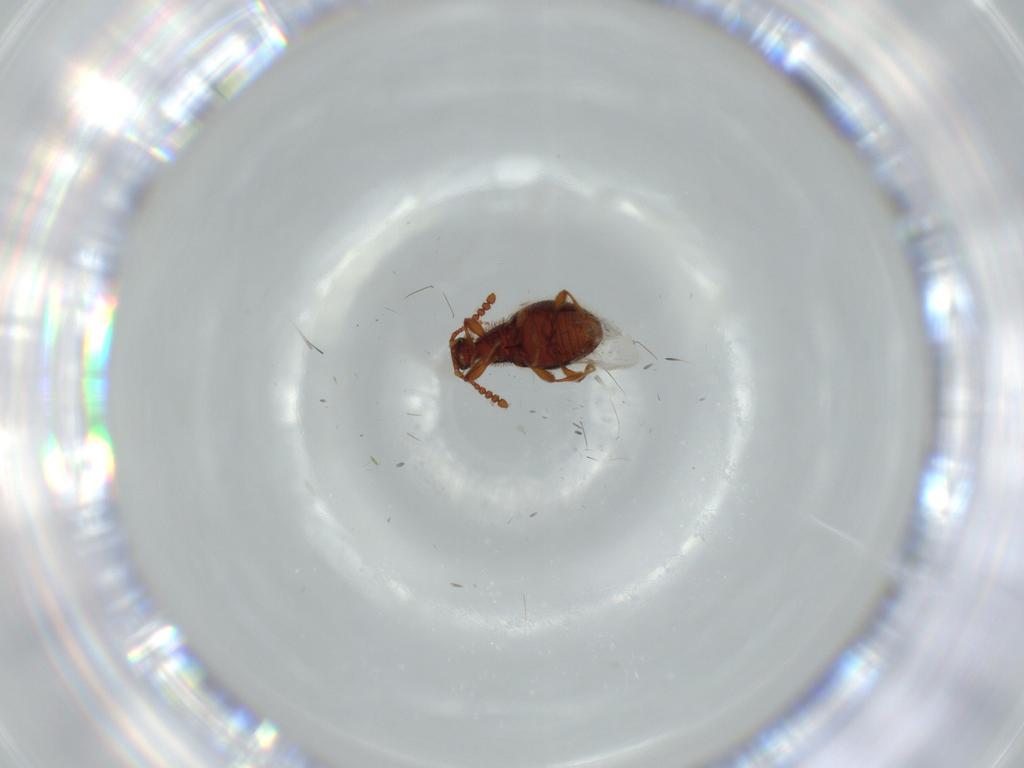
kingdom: Animalia
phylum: Arthropoda
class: Insecta
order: Coleoptera
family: Staphylinidae
